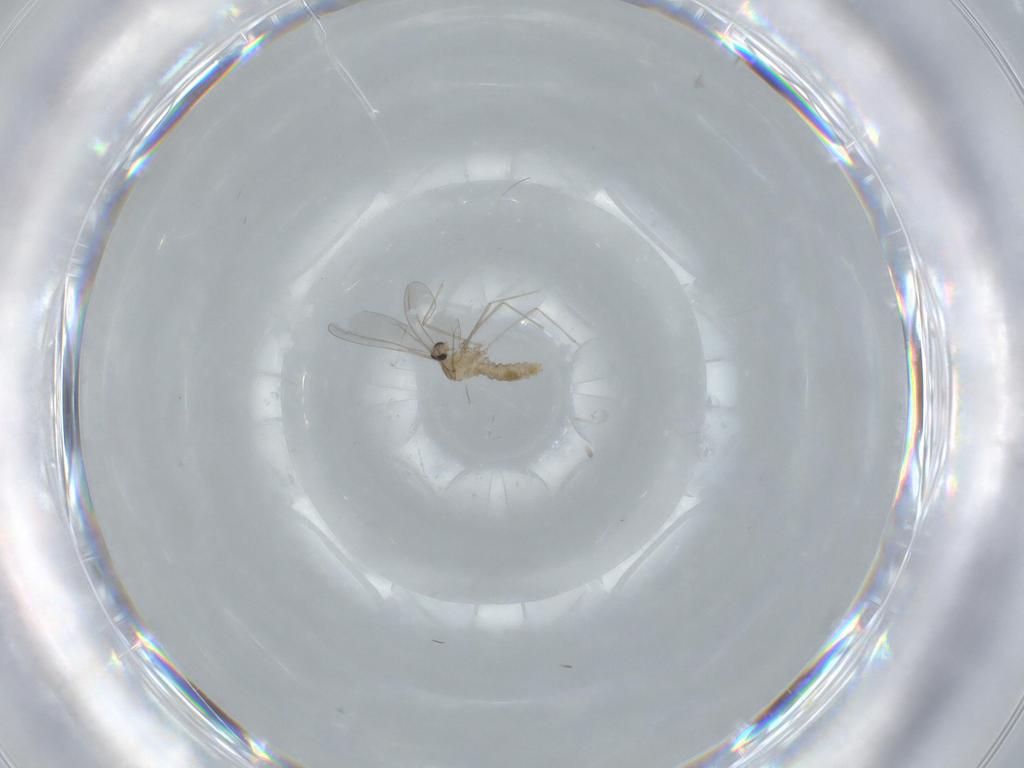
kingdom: Animalia
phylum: Arthropoda
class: Insecta
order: Diptera
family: Cecidomyiidae
